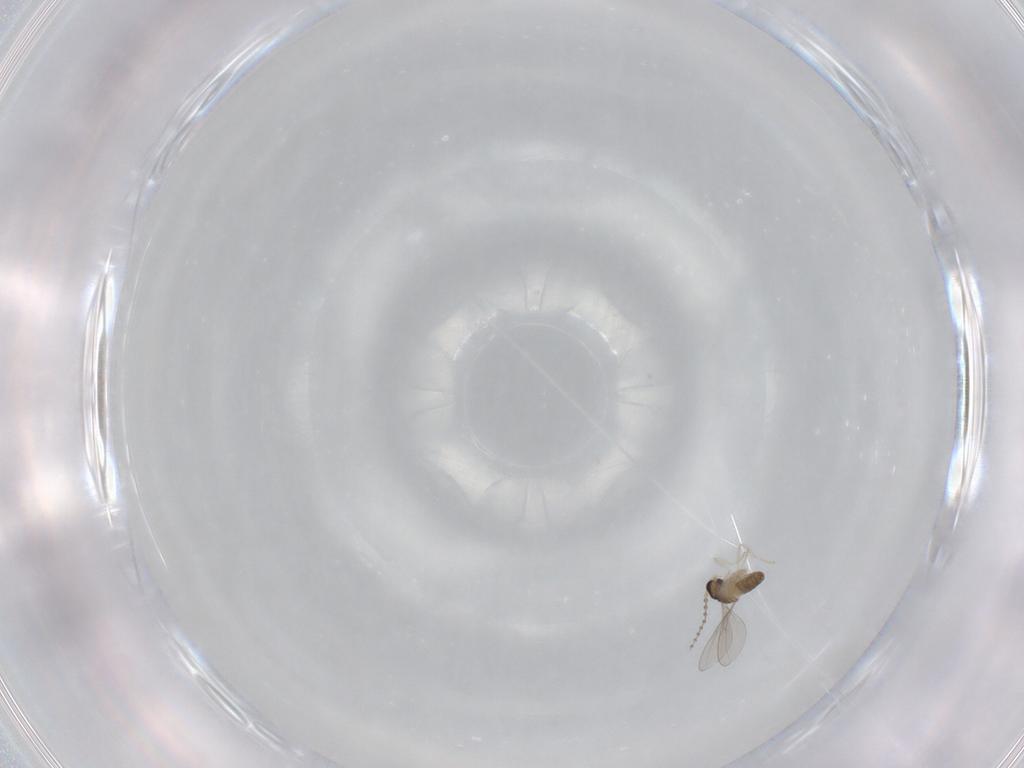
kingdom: Animalia
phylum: Arthropoda
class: Insecta
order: Diptera
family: Cecidomyiidae
